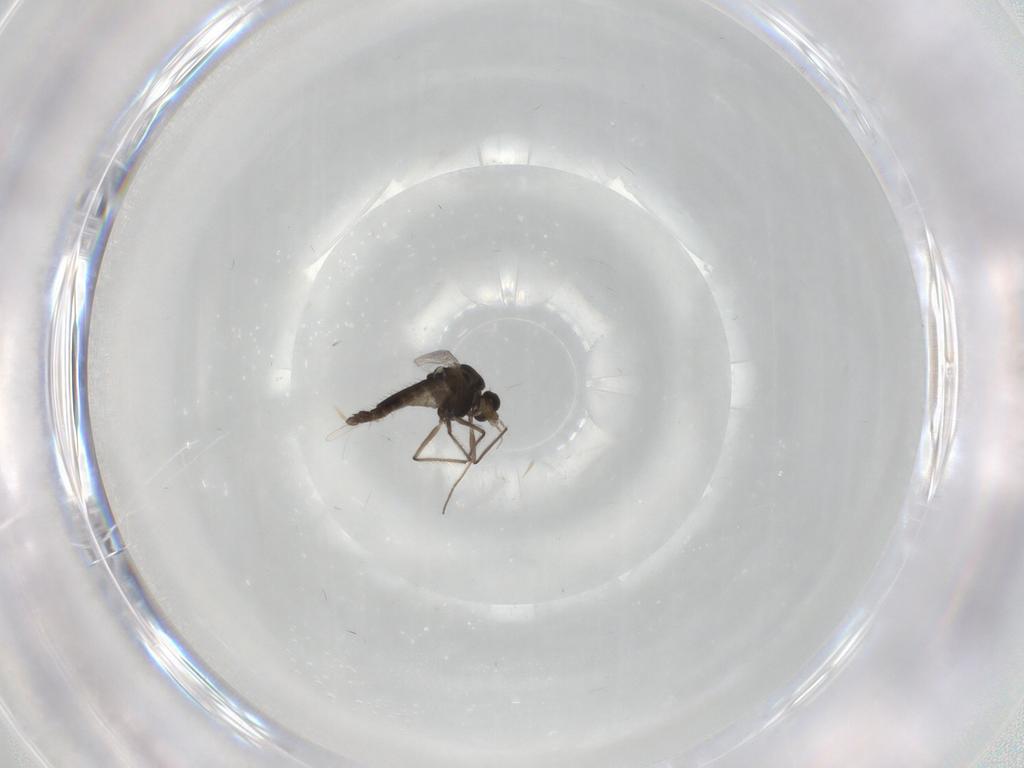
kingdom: Animalia
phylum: Arthropoda
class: Insecta
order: Diptera
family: Chironomidae
